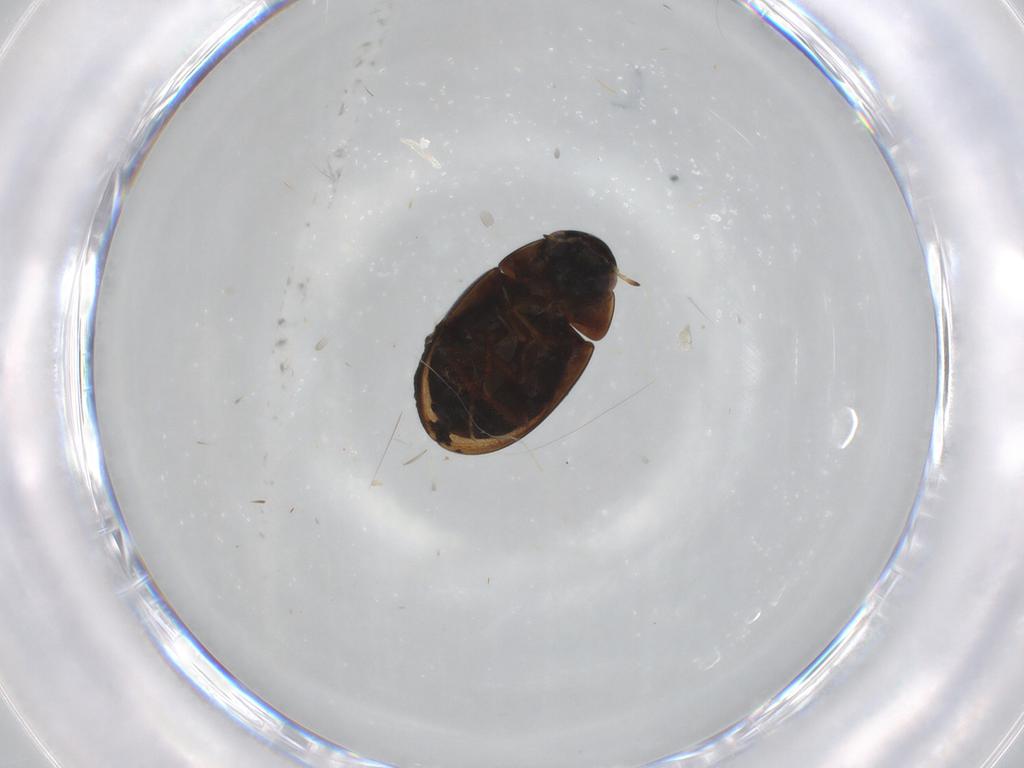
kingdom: Animalia
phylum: Arthropoda
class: Insecta
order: Coleoptera
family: Hydrophilidae
